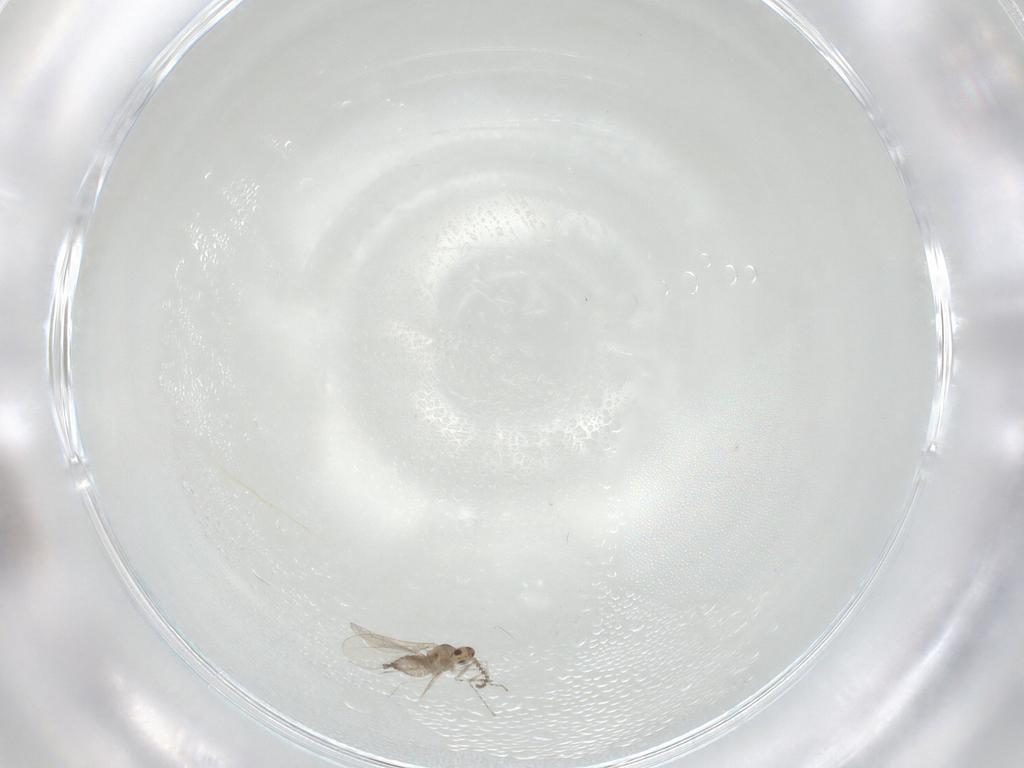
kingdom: Animalia
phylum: Arthropoda
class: Insecta
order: Diptera
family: Cecidomyiidae
